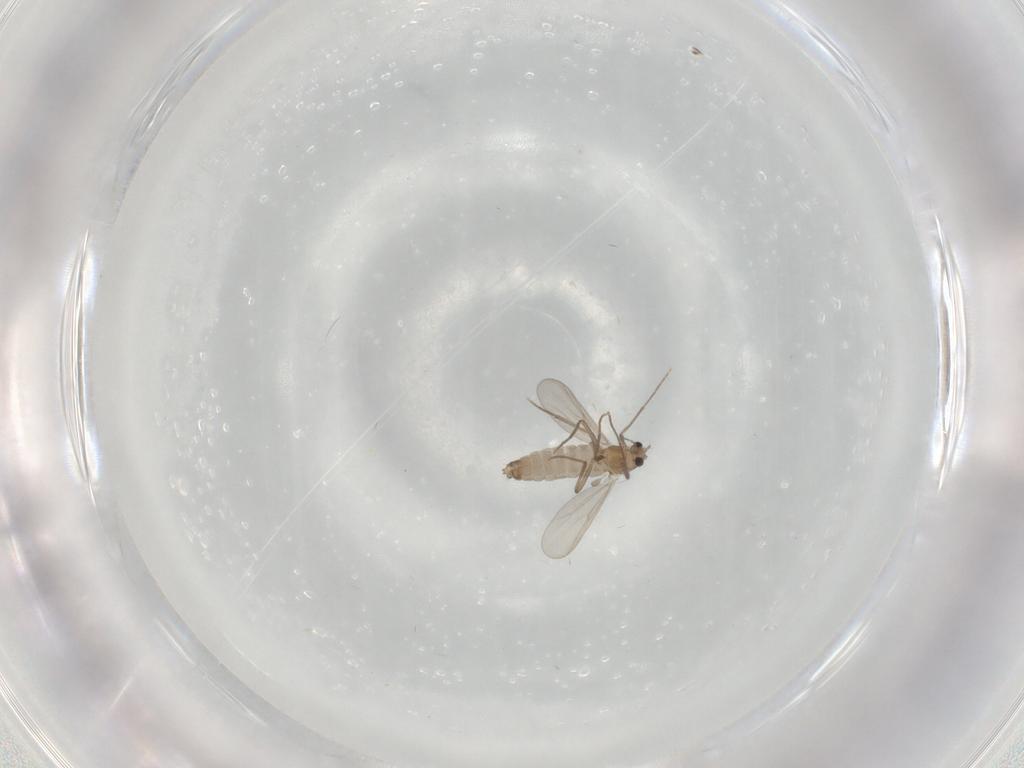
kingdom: Animalia
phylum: Arthropoda
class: Insecta
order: Diptera
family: Chironomidae
